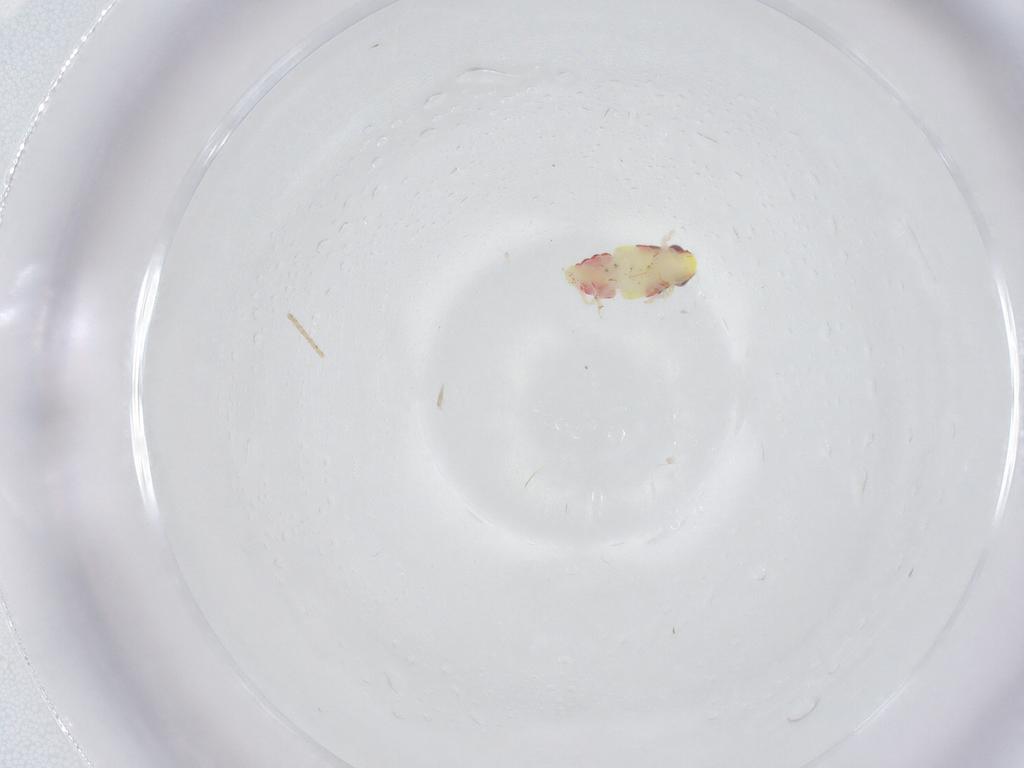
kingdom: Animalia
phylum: Arthropoda
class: Insecta
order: Hemiptera
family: Tropiduchidae
